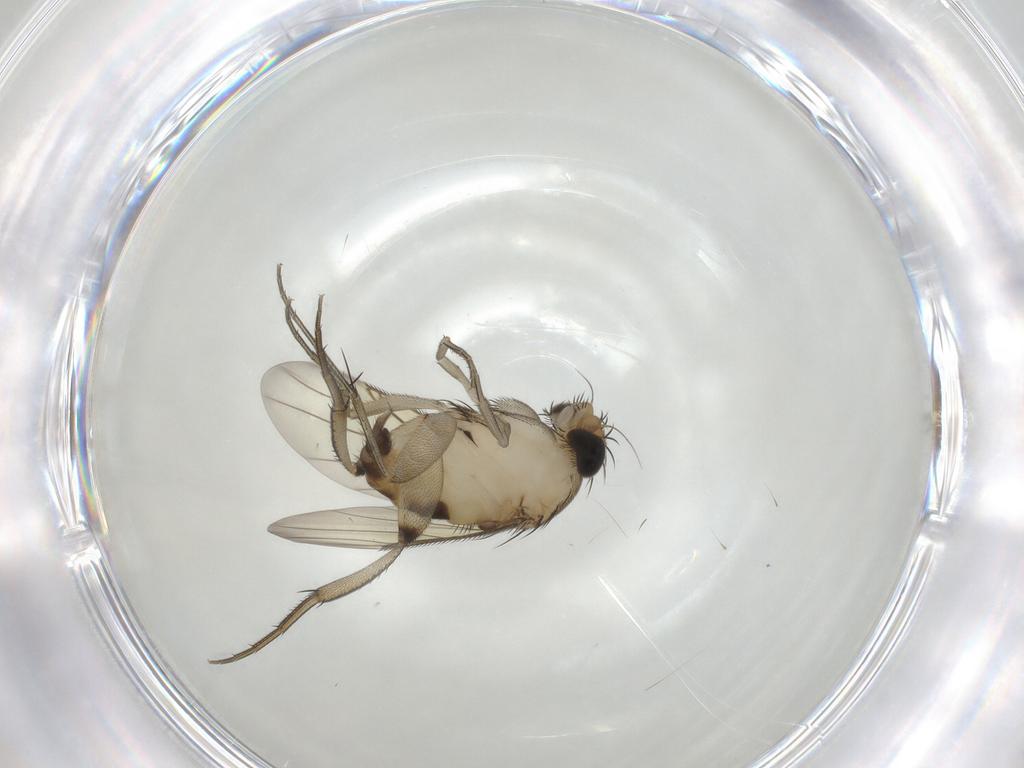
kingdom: Animalia
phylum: Arthropoda
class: Insecta
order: Diptera
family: Phoridae
